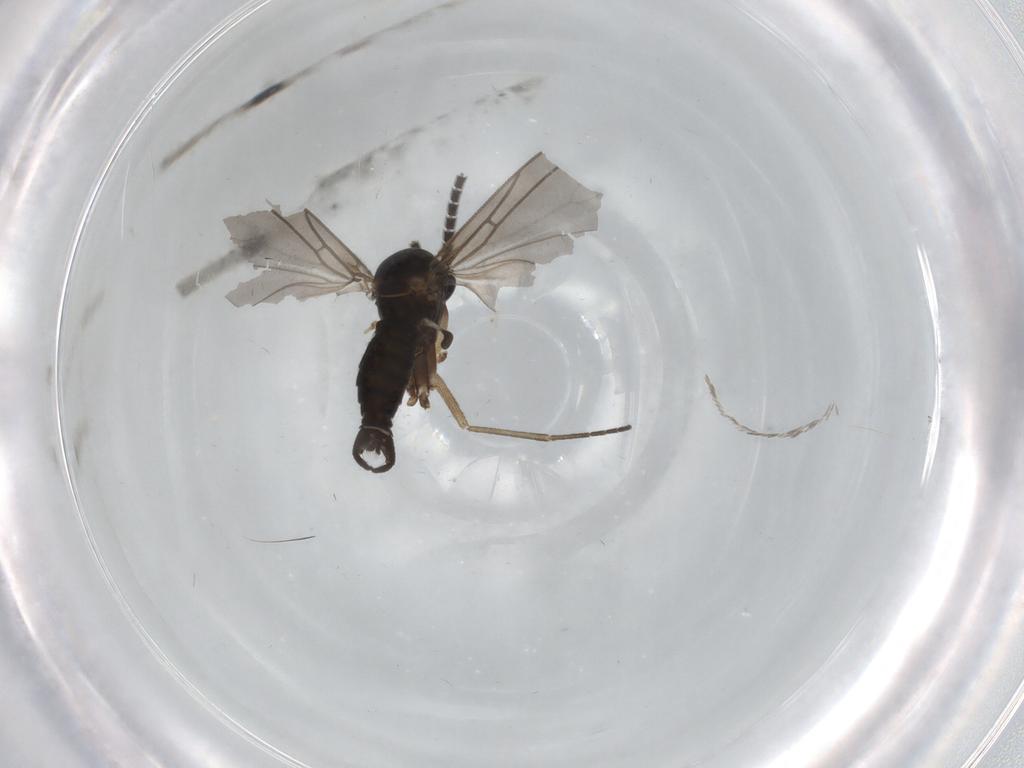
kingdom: Animalia
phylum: Arthropoda
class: Insecta
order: Diptera
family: Sciaridae
